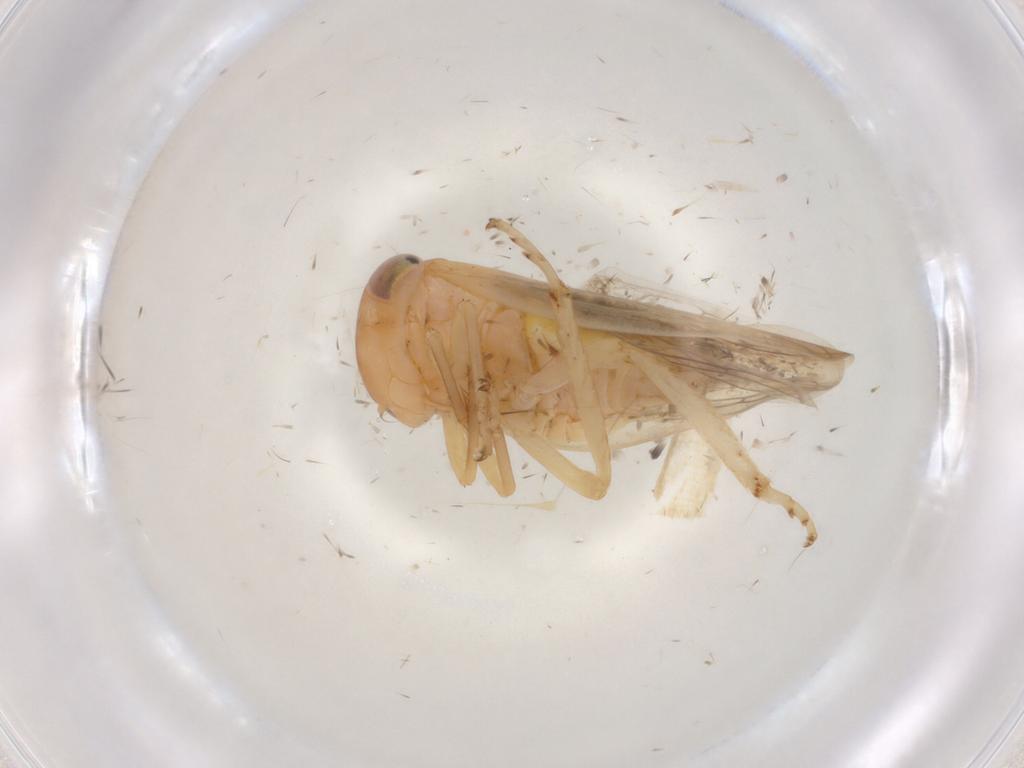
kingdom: Animalia
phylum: Arthropoda
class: Insecta
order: Hemiptera
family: Cicadellidae
